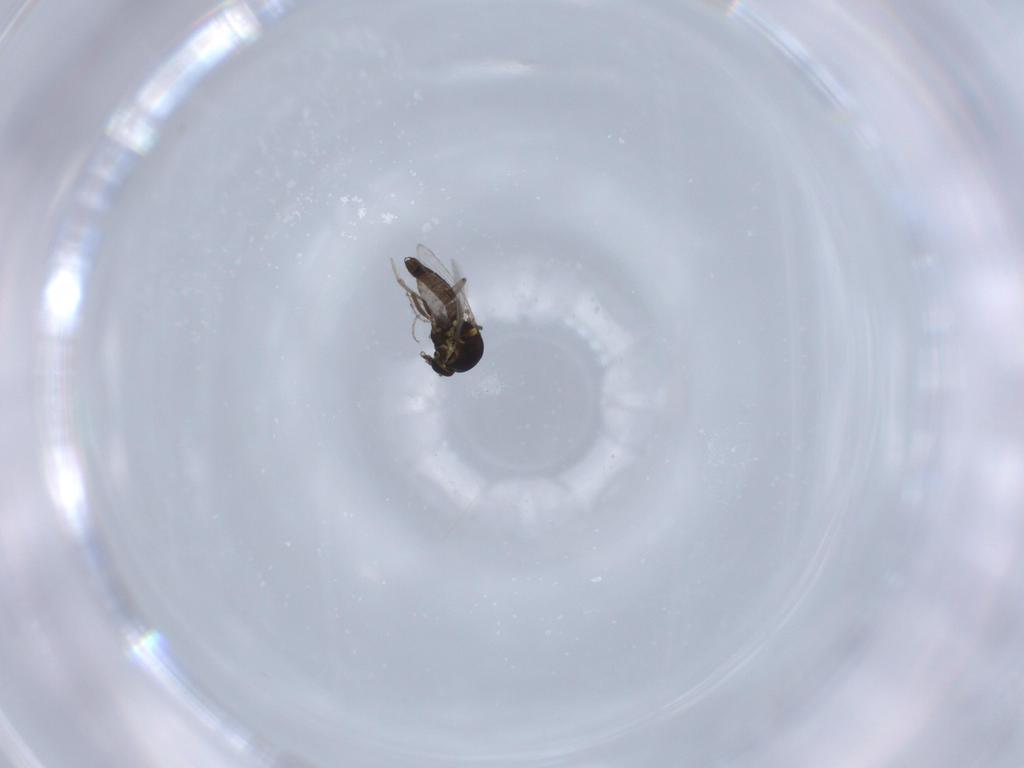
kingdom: Animalia
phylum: Arthropoda
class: Insecta
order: Diptera
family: Ceratopogonidae
